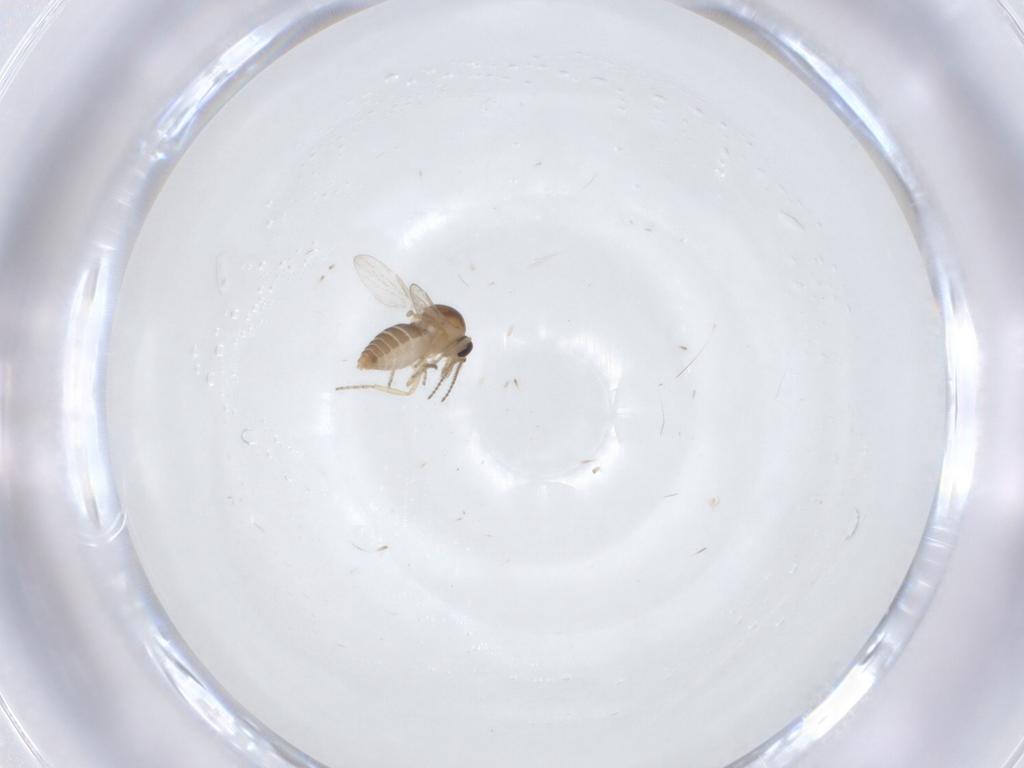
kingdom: Animalia
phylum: Arthropoda
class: Insecta
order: Diptera
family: Ceratopogonidae
